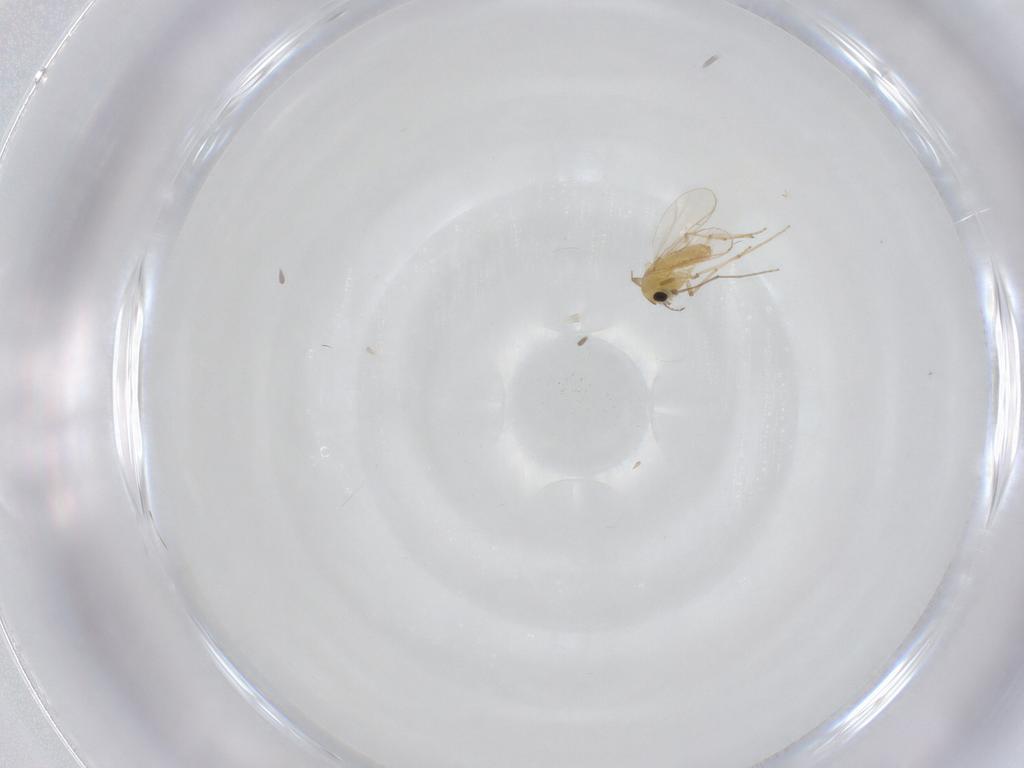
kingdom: Animalia
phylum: Arthropoda
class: Insecta
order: Diptera
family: Chironomidae
